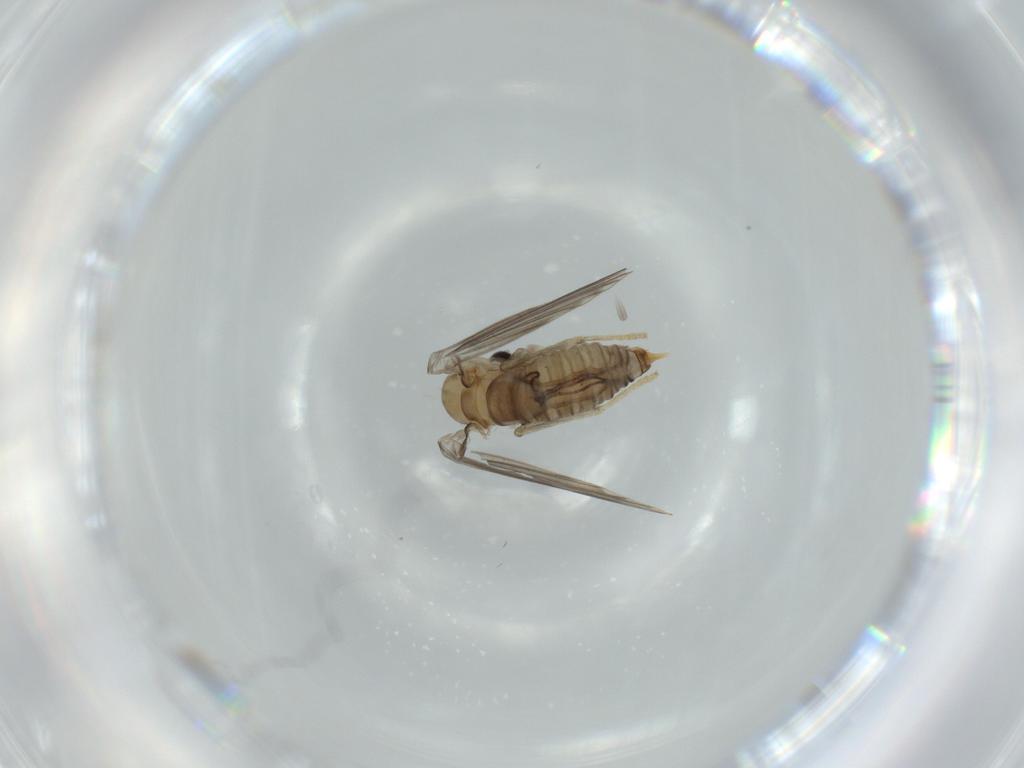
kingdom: Animalia
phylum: Arthropoda
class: Insecta
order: Diptera
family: Psychodidae
